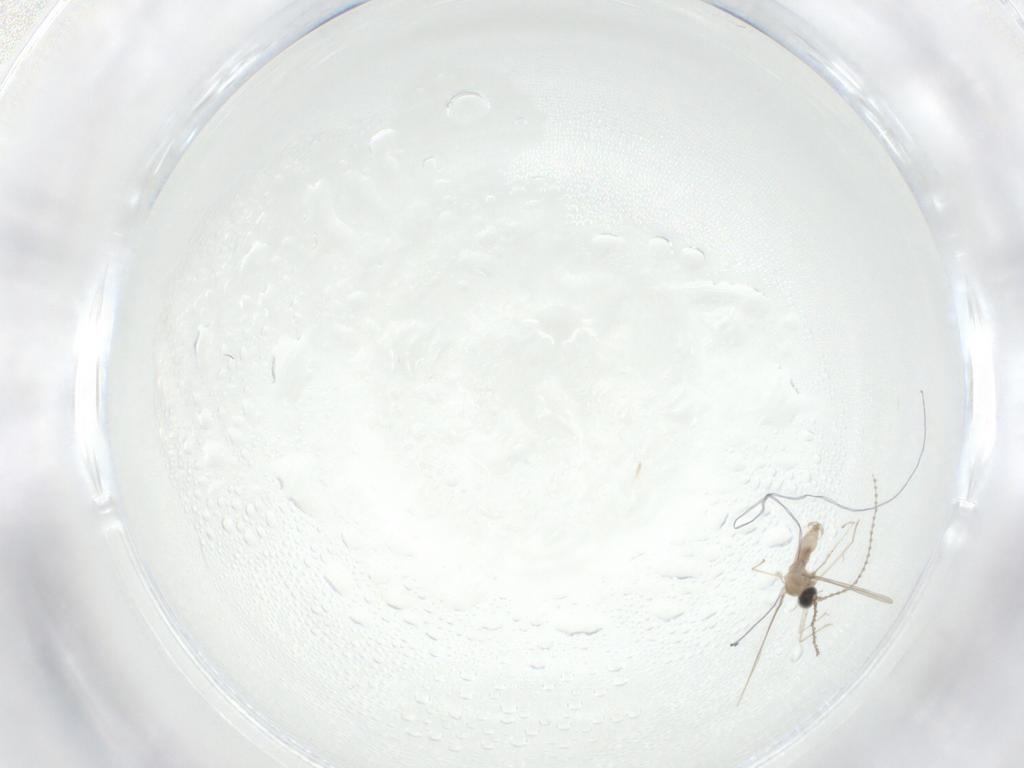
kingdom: Animalia
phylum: Arthropoda
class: Insecta
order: Diptera
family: Cecidomyiidae
